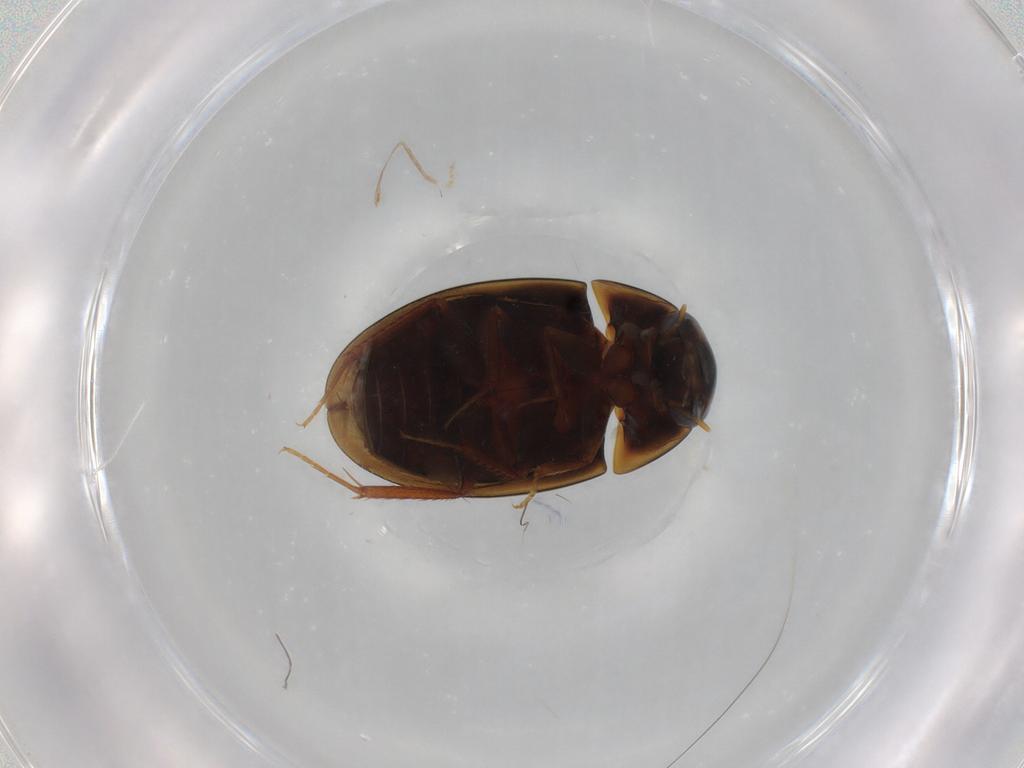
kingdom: Animalia
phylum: Arthropoda
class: Insecta
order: Coleoptera
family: Hydrophilidae
